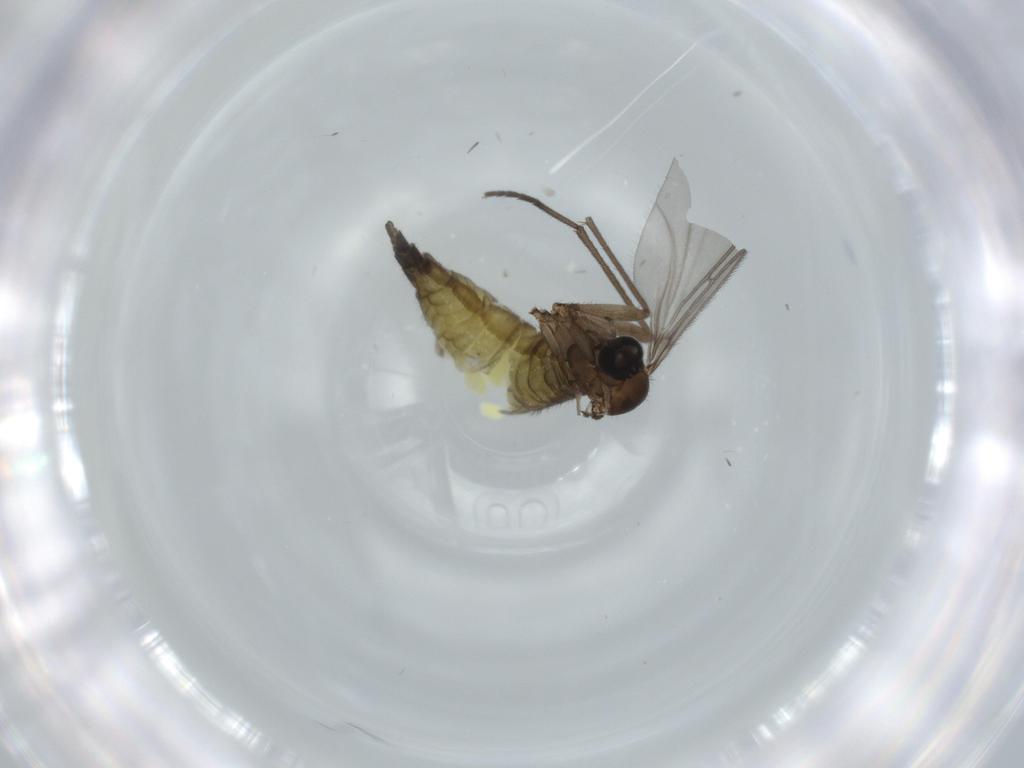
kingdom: Animalia
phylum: Arthropoda
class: Insecta
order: Diptera
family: Sciaridae
